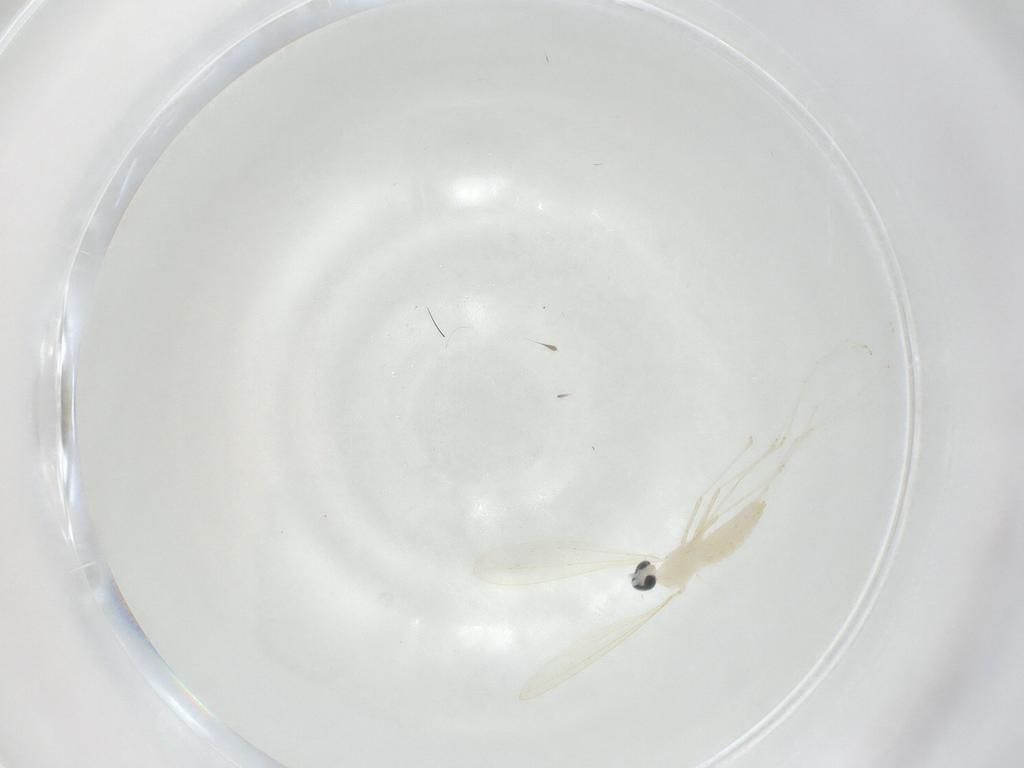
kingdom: Animalia
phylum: Arthropoda
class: Insecta
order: Diptera
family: Cecidomyiidae
